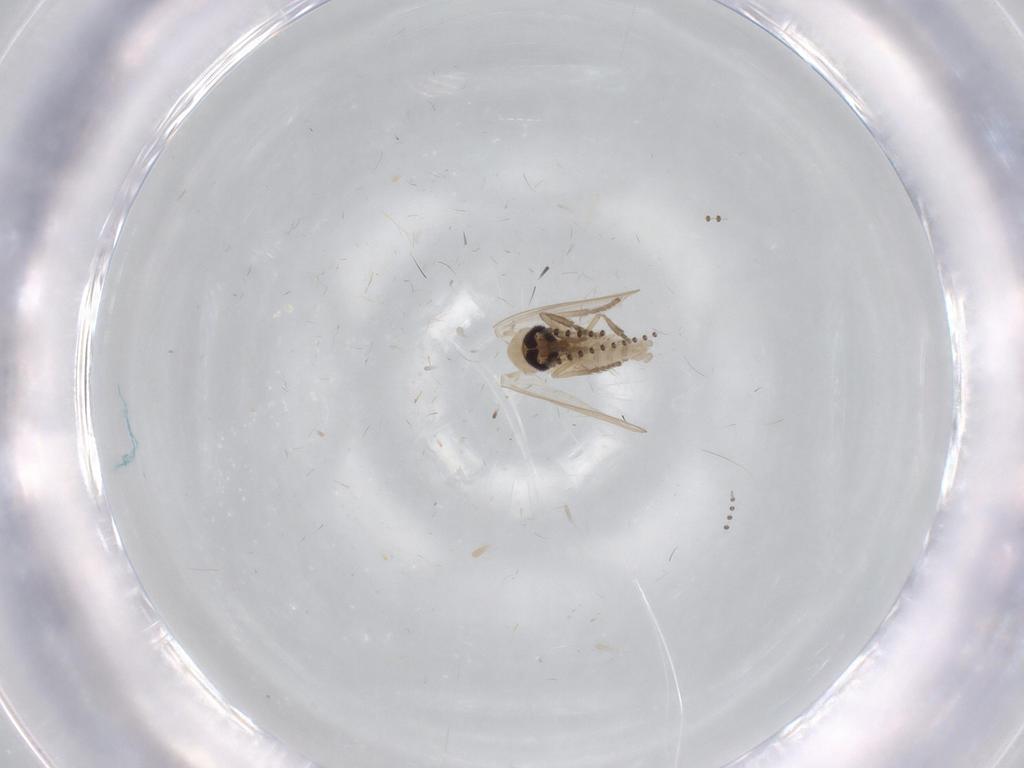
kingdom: Animalia
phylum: Arthropoda
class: Insecta
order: Diptera
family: Psychodidae
